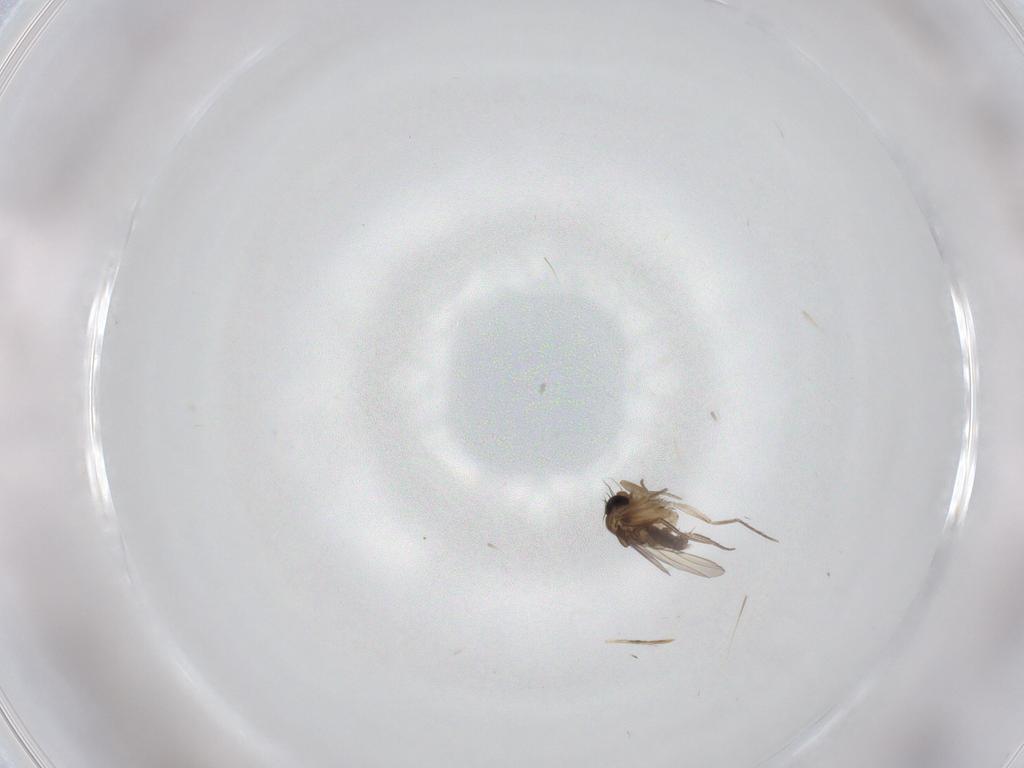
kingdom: Animalia
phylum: Arthropoda
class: Insecta
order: Diptera
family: Phoridae
